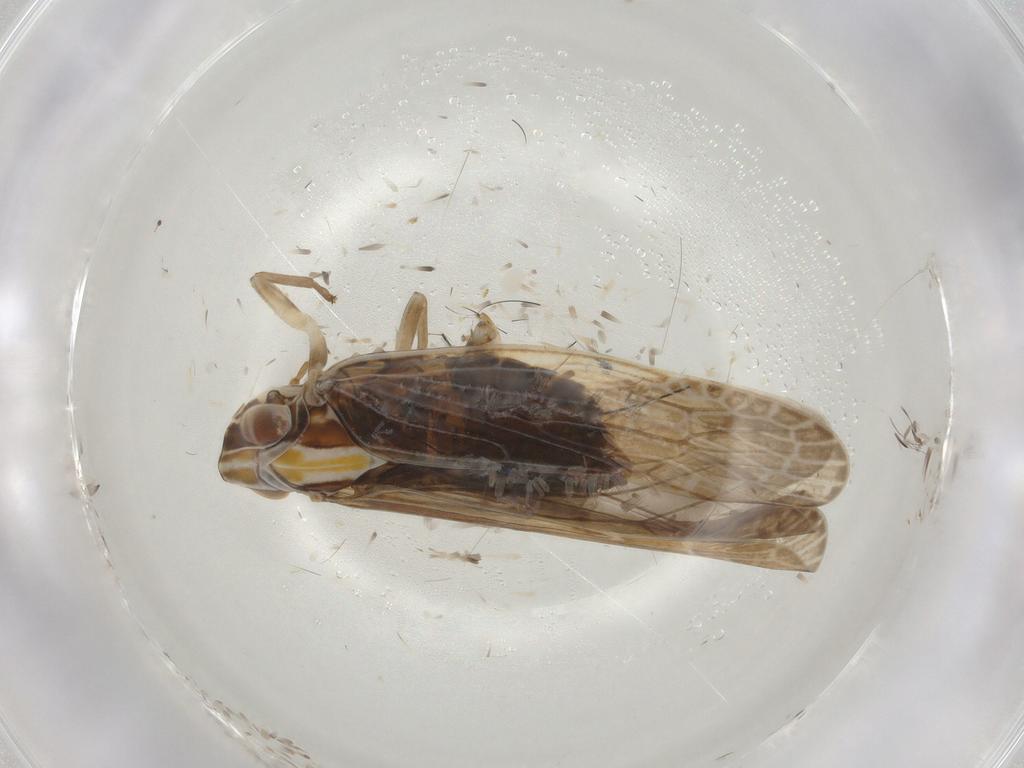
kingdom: Animalia
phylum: Arthropoda
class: Insecta
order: Hemiptera
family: Achilidae
